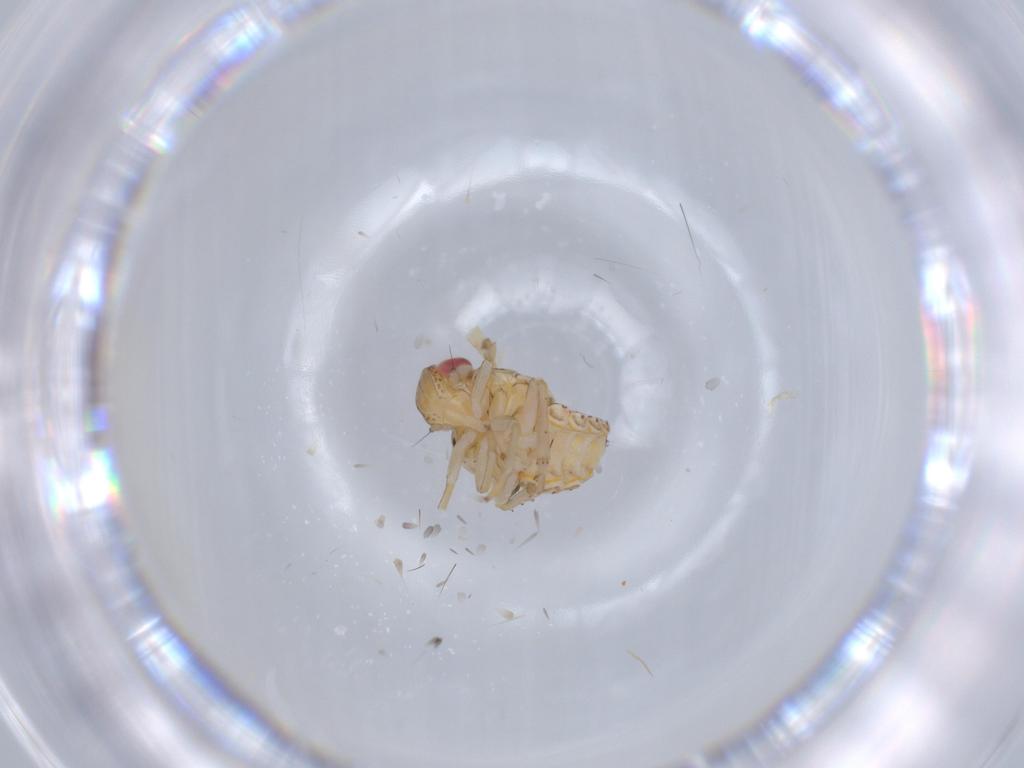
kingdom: Animalia
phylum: Arthropoda
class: Insecta
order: Hemiptera
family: Issidae
